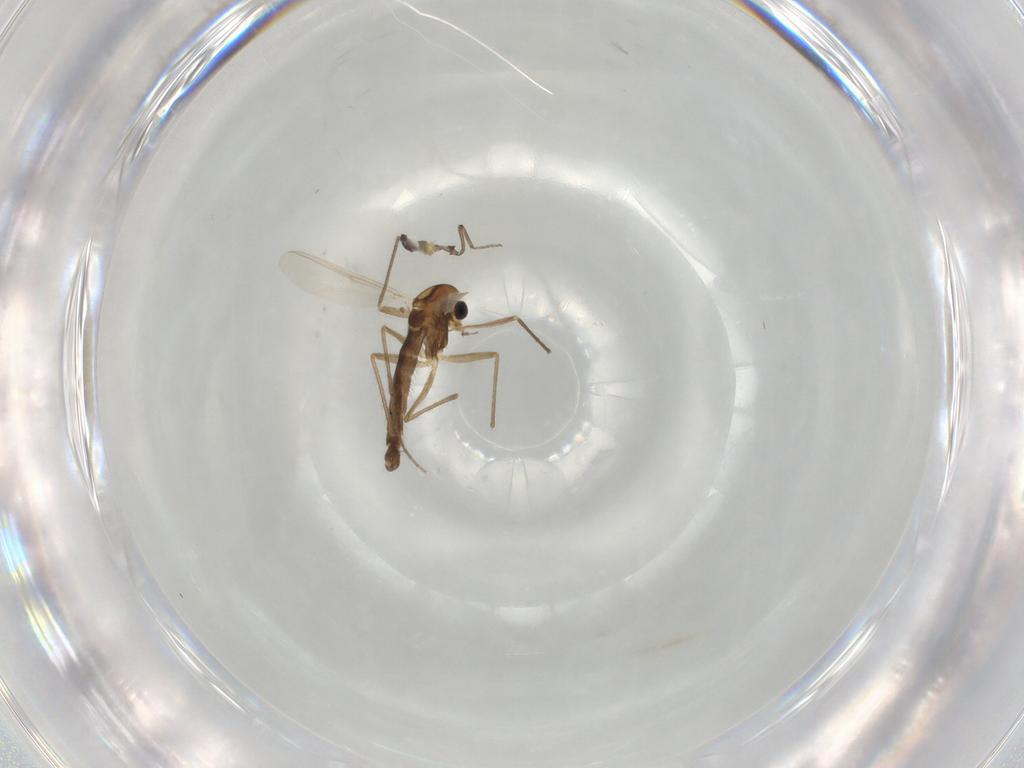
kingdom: Animalia
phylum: Arthropoda
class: Insecta
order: Diptera
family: Chironomidae
